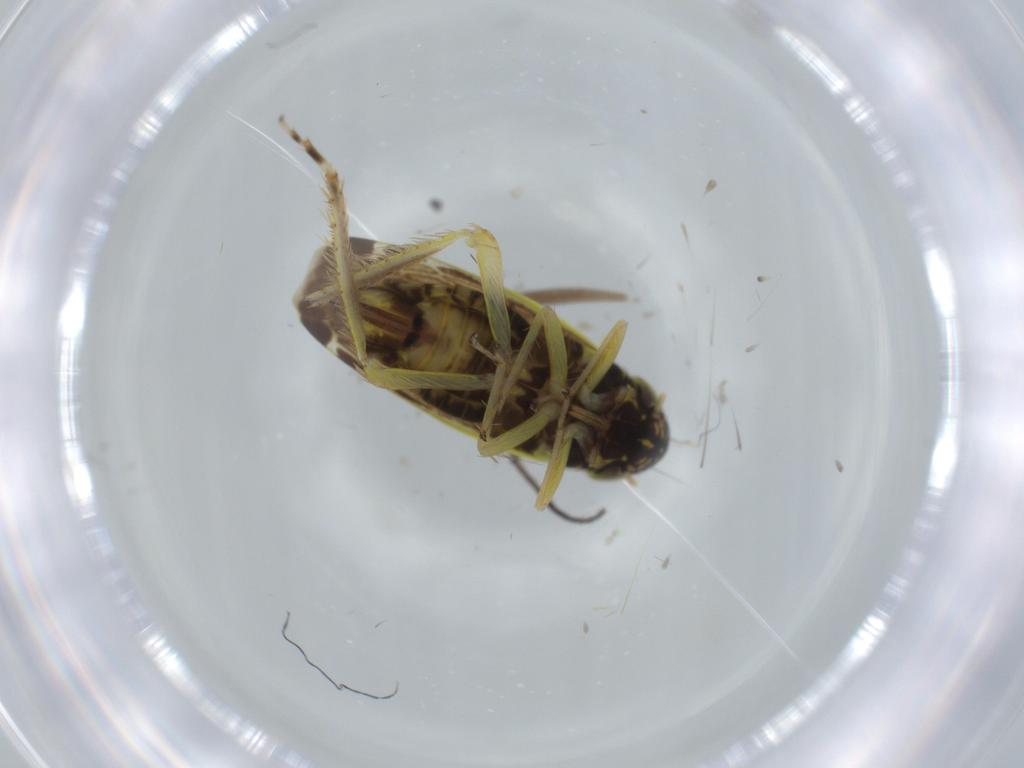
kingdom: Animalia
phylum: Arthropoda
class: Insecta
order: Hemiptera
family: Cicadellidae
